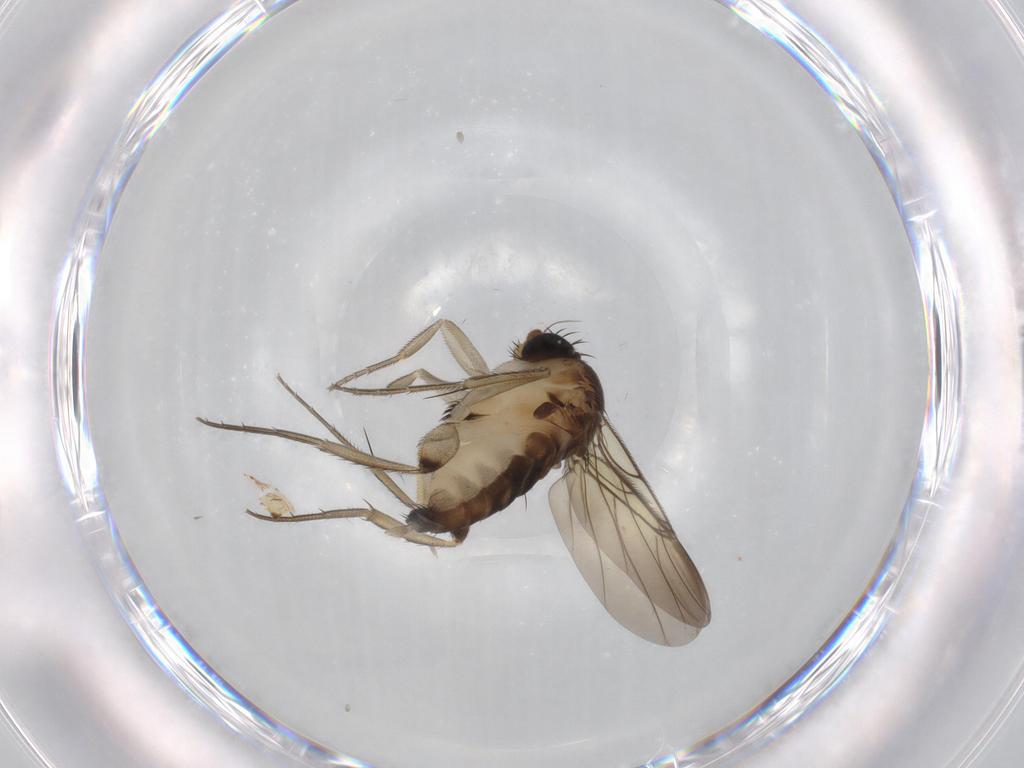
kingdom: Animalia
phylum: Arthropoda
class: Insecta
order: Diptera
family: Phoridae
